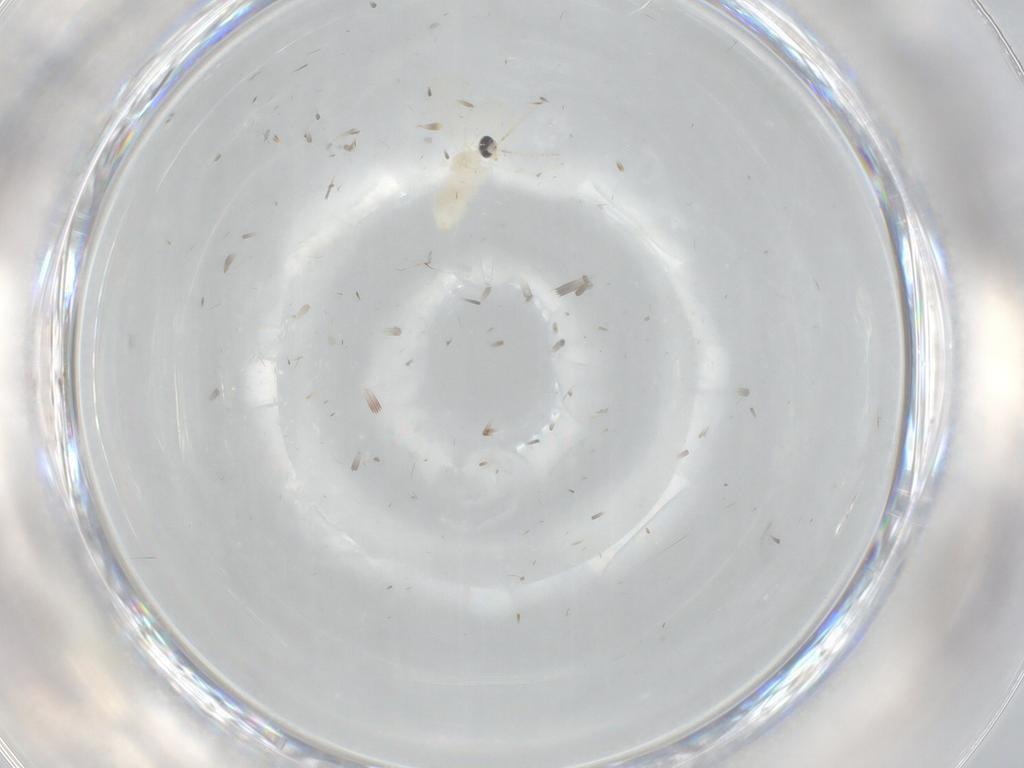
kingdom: Animalia
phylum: Arthropoda
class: Insecta
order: Diptera
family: Cecidomyiidae
